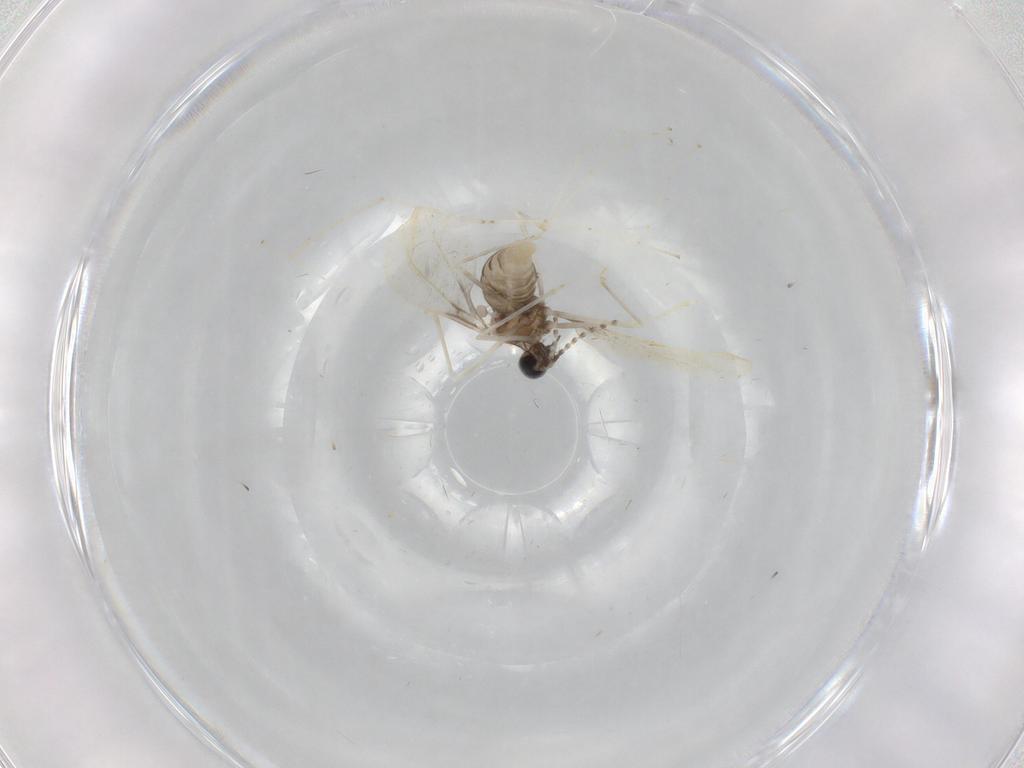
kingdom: Animalia
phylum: Arthropoda
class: Insecta
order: Diptera
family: Cecidomyiidae
